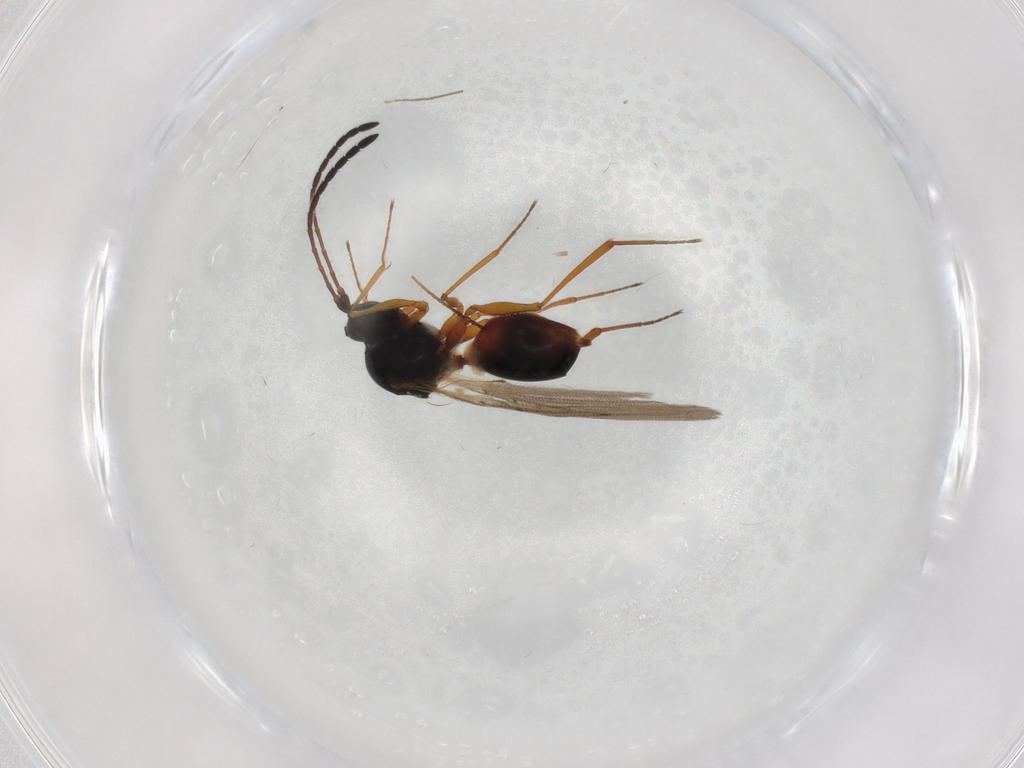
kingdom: Animalia
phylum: Arthropoda
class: Insecta
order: Hymenoptera
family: Figitidae
